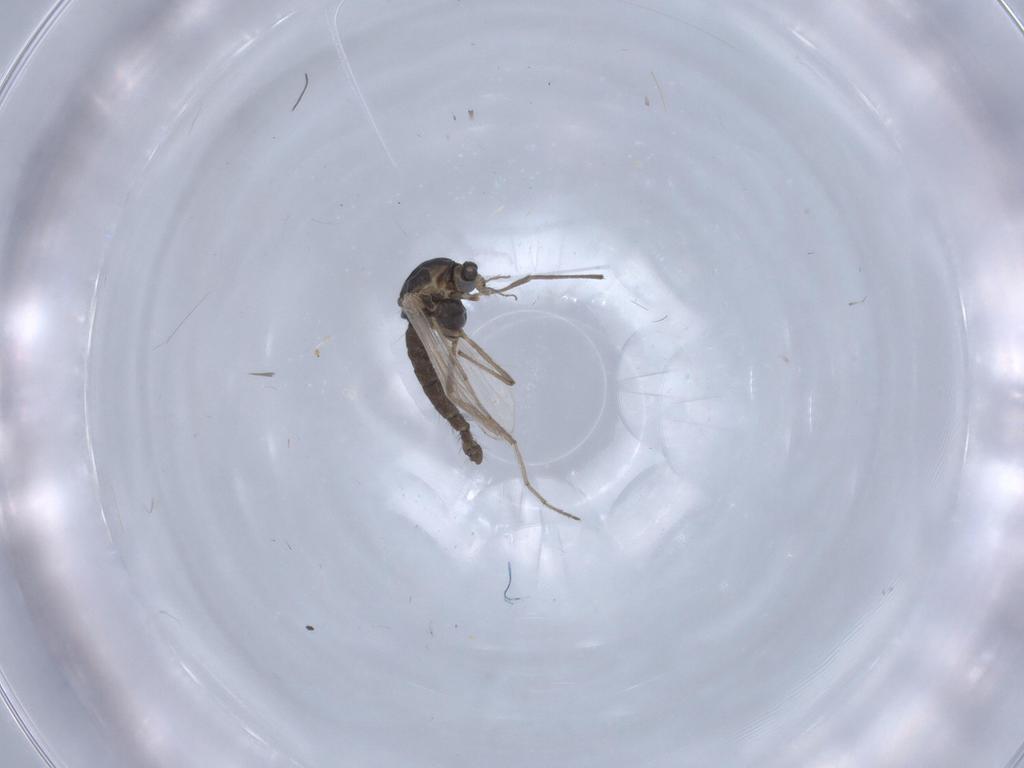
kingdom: Animalia
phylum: Arthropoda
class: Insecta
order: Diptera
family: Chironomidae
